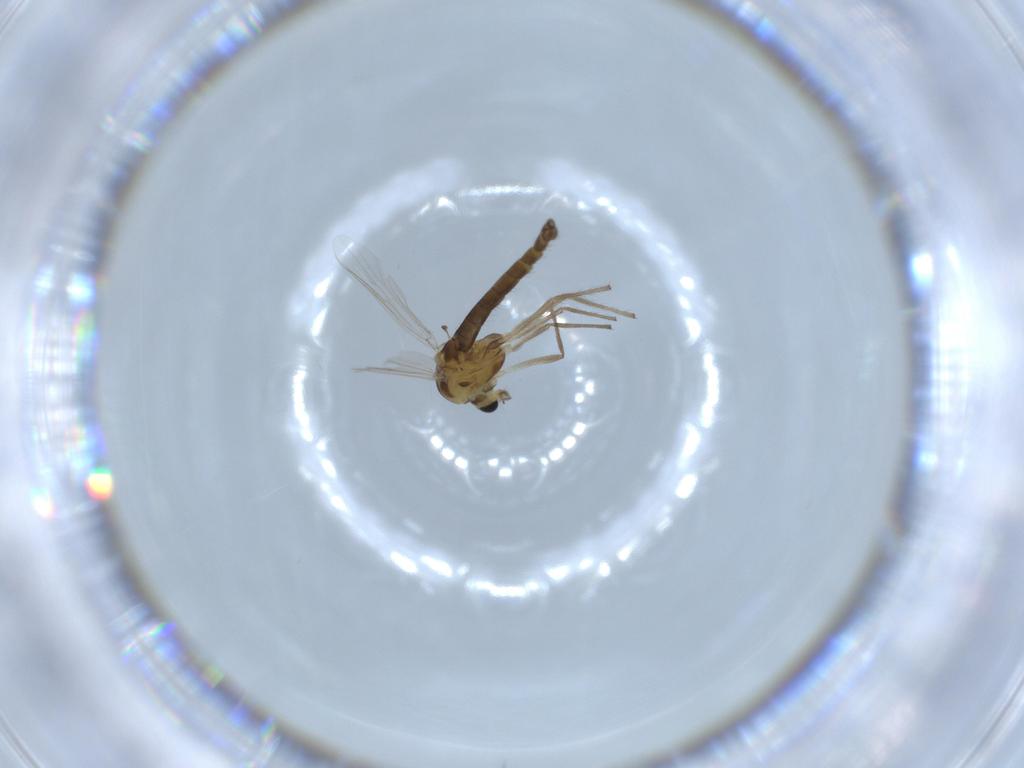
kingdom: Animalia
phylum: Arthropoda
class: Insecta
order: Diptera
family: Chironomidae
